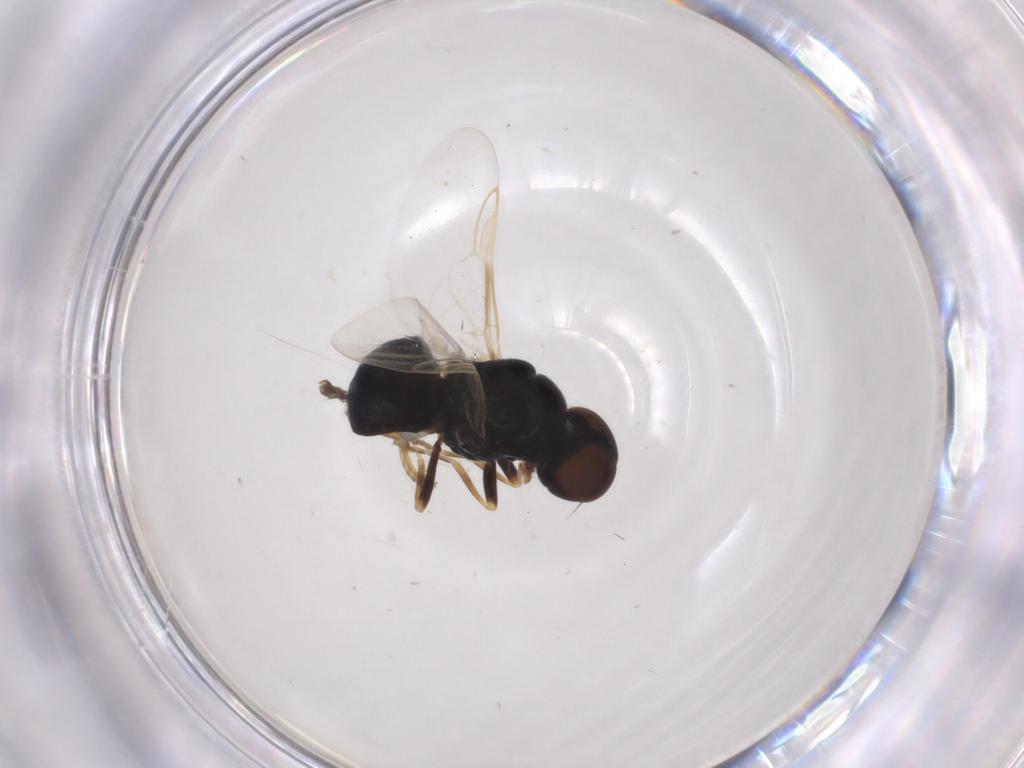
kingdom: Animalia
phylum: Arthropoda
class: Insecta
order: Diptera
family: Stratiomyidae
